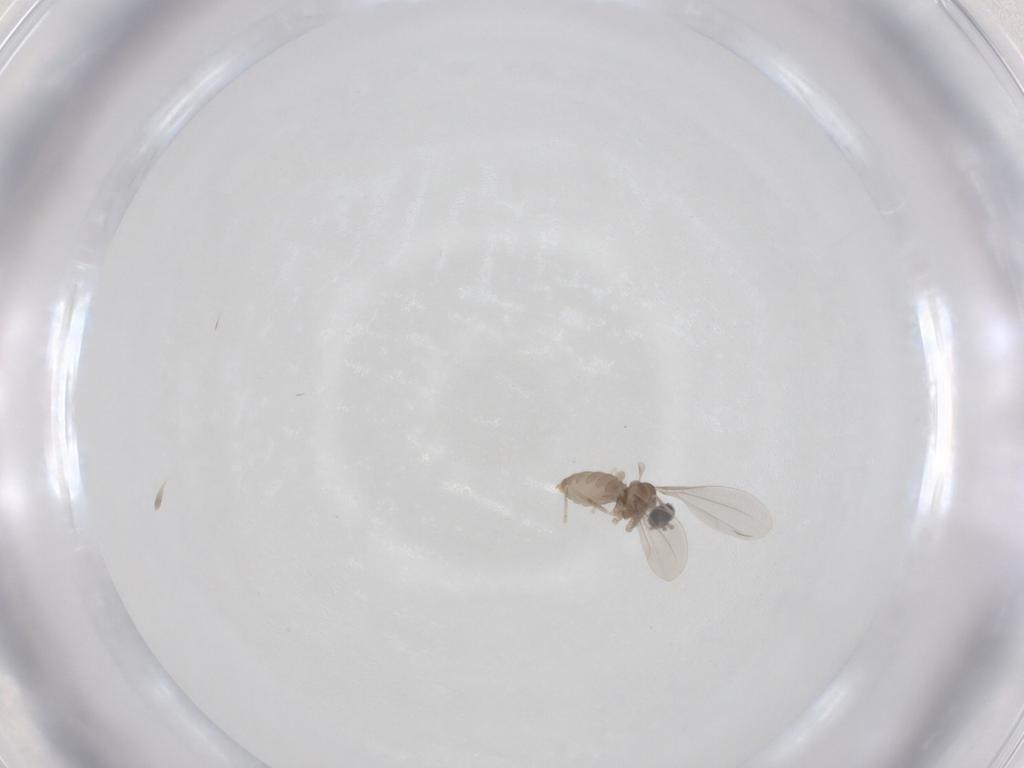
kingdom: Animalia
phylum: Arthropoda
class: Insecta
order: Diptera
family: Cecidomyiidae
